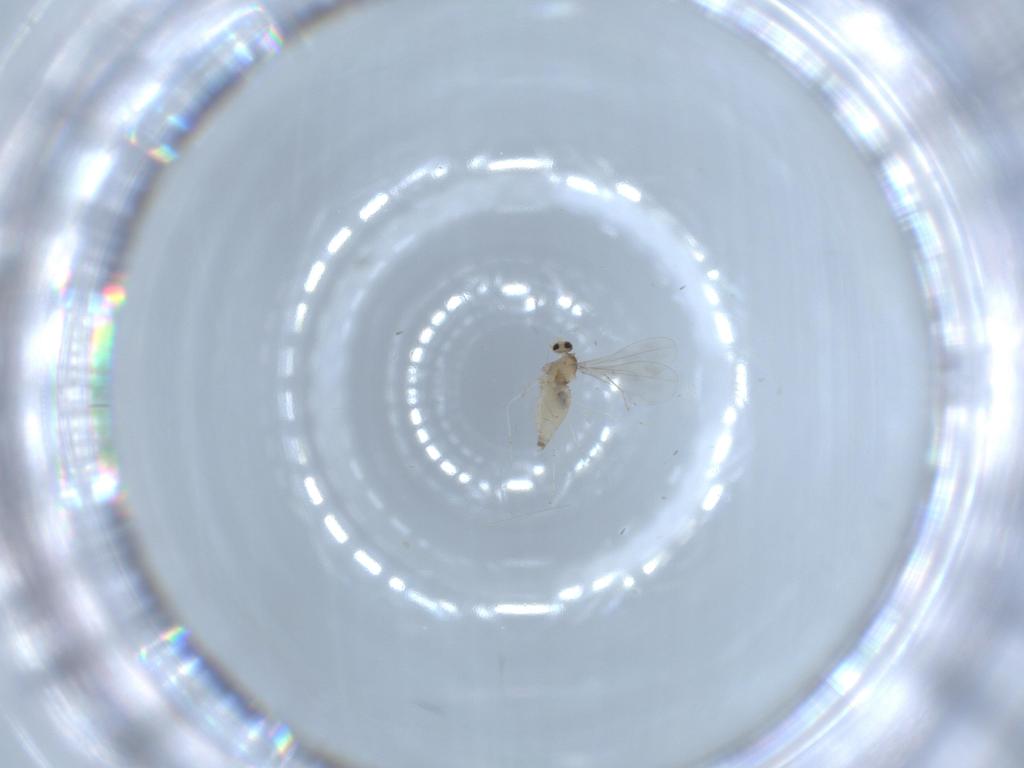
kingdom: Animalia
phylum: Arthropoda
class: Insecta
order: Diptera
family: Cecidomyiidae
